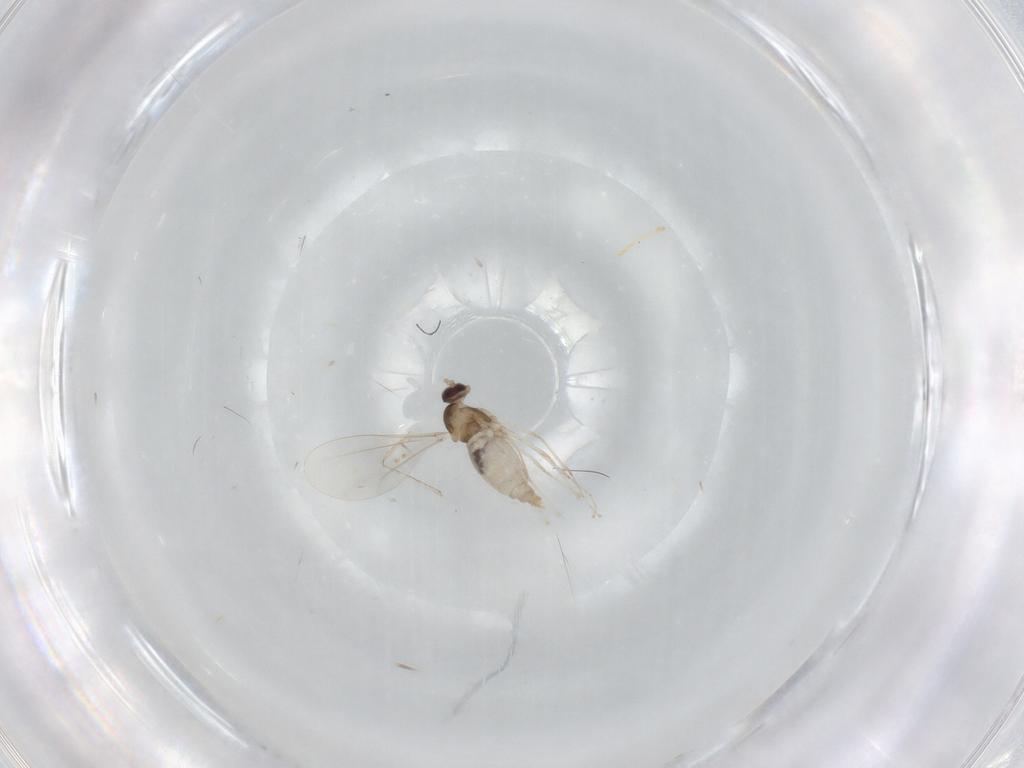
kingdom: Animalia
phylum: Arthropoda
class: Insecta
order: Diptera
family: Cecidomyiidae
